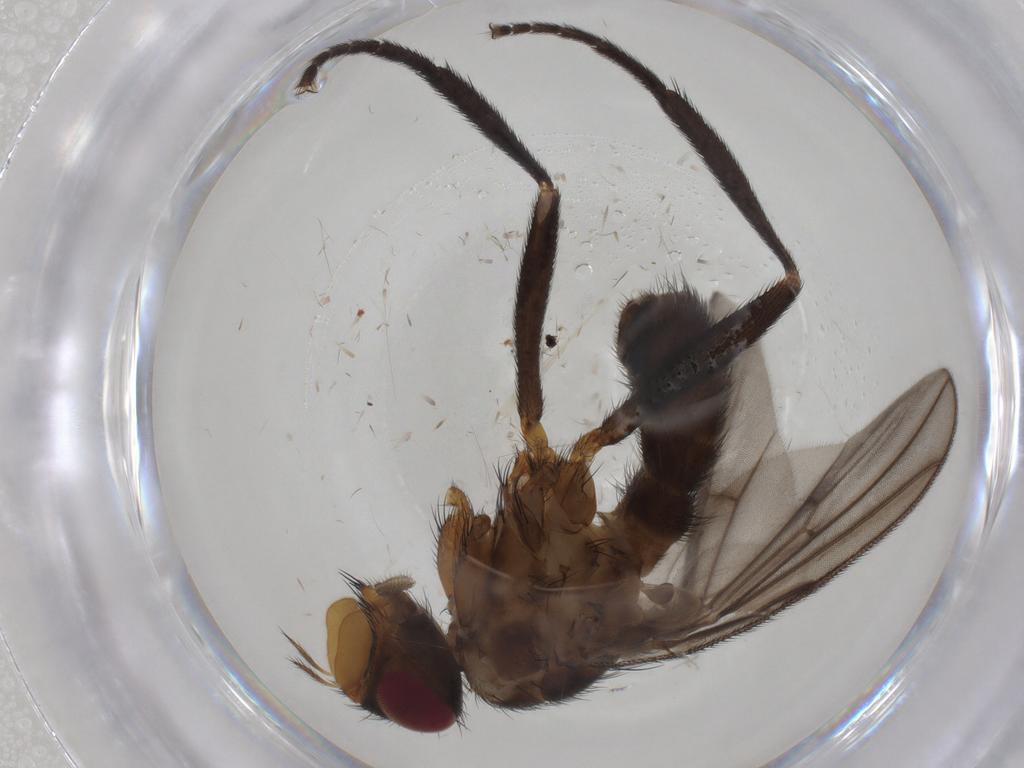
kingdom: Animalia
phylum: Arthropoda
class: Insecta
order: Diptera
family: Calliphoridae
